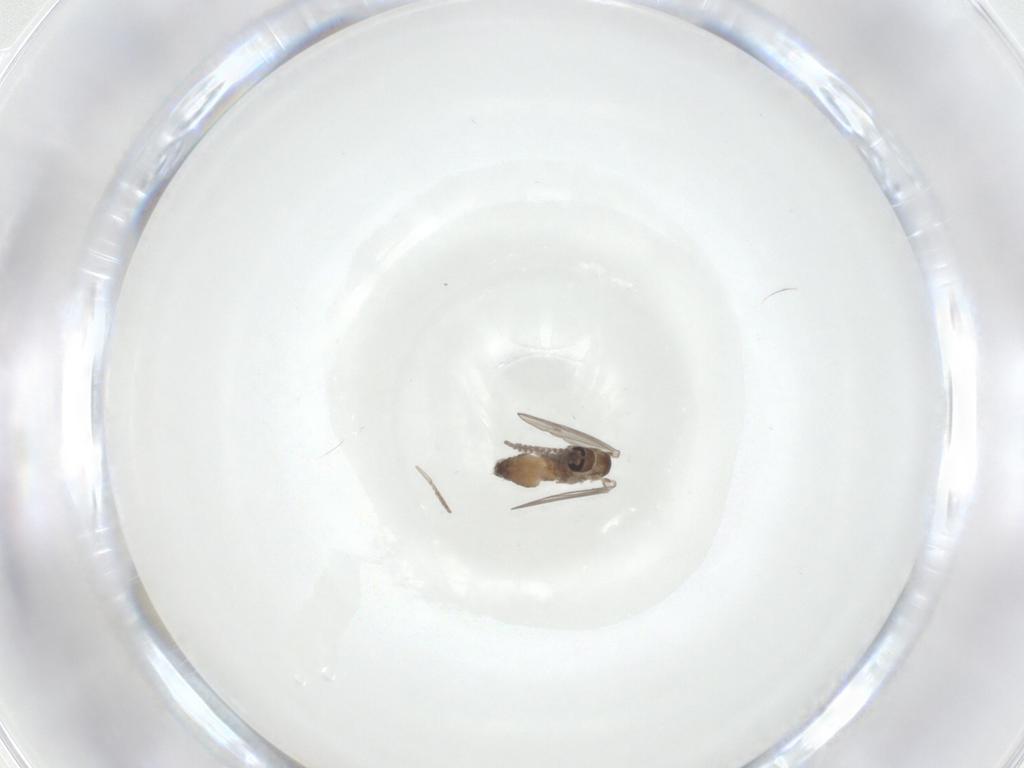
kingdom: Animalia
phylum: Arthropoda
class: Insecta
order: Diptera
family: Psychodidae
